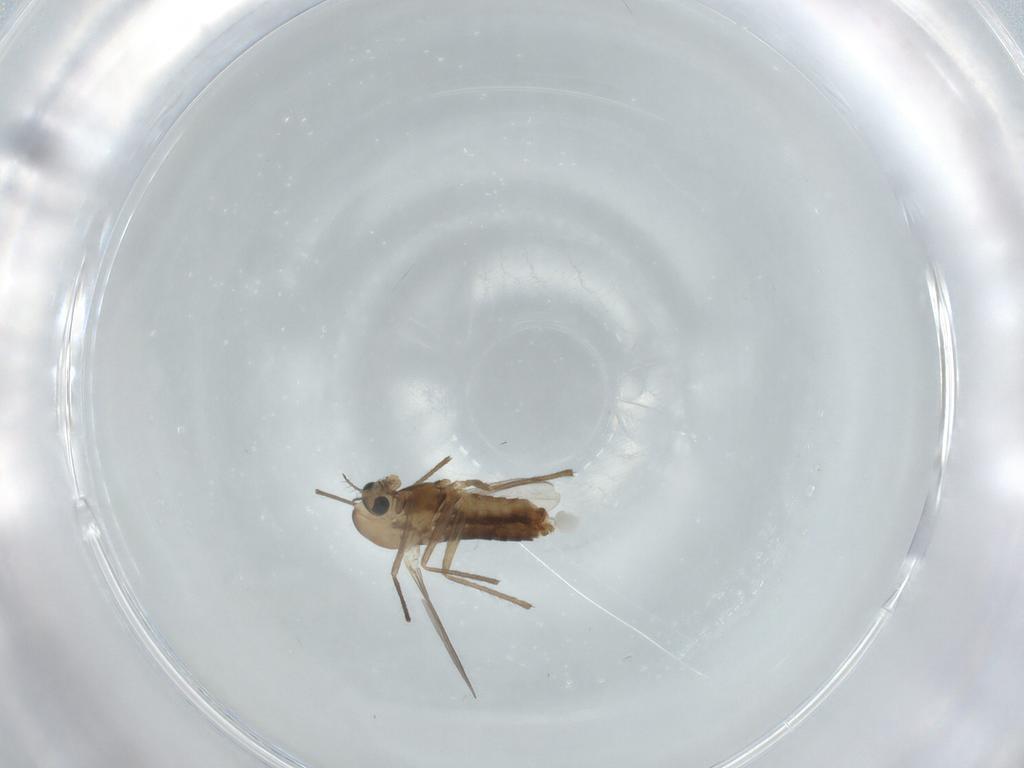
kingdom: Animalia
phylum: Arthropoda
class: Insecta
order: Diptera
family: Chironomidae
